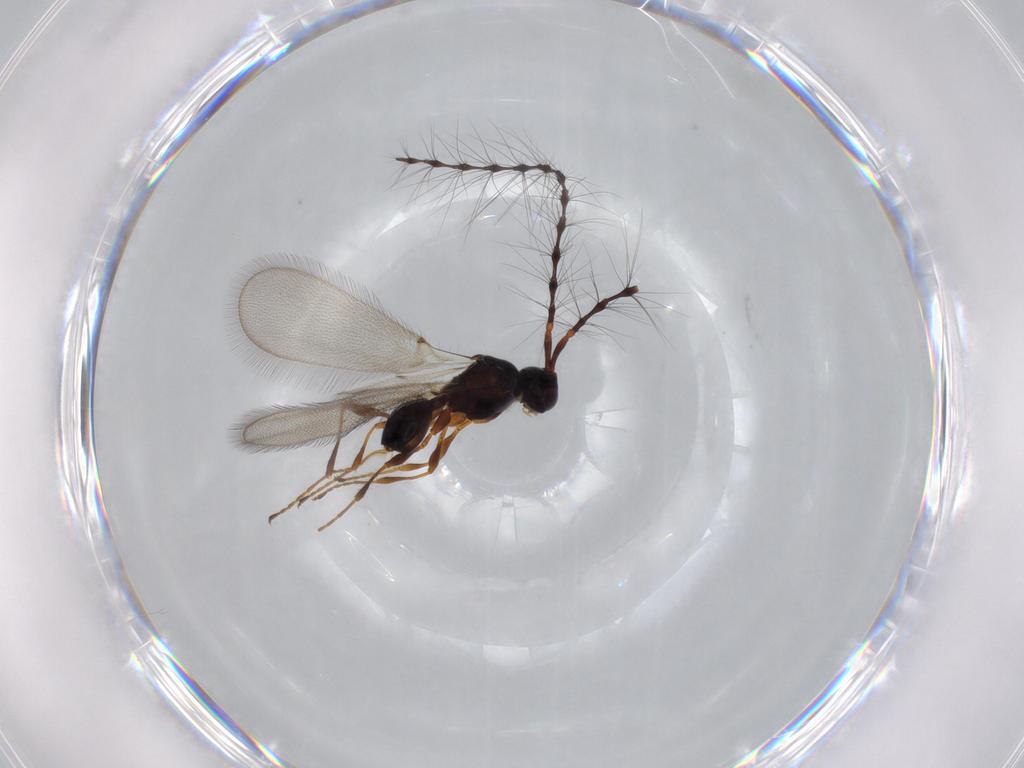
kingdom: Animalia
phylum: Arthropoda
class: Insecta
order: Hymenoptera
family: Diapriidae
